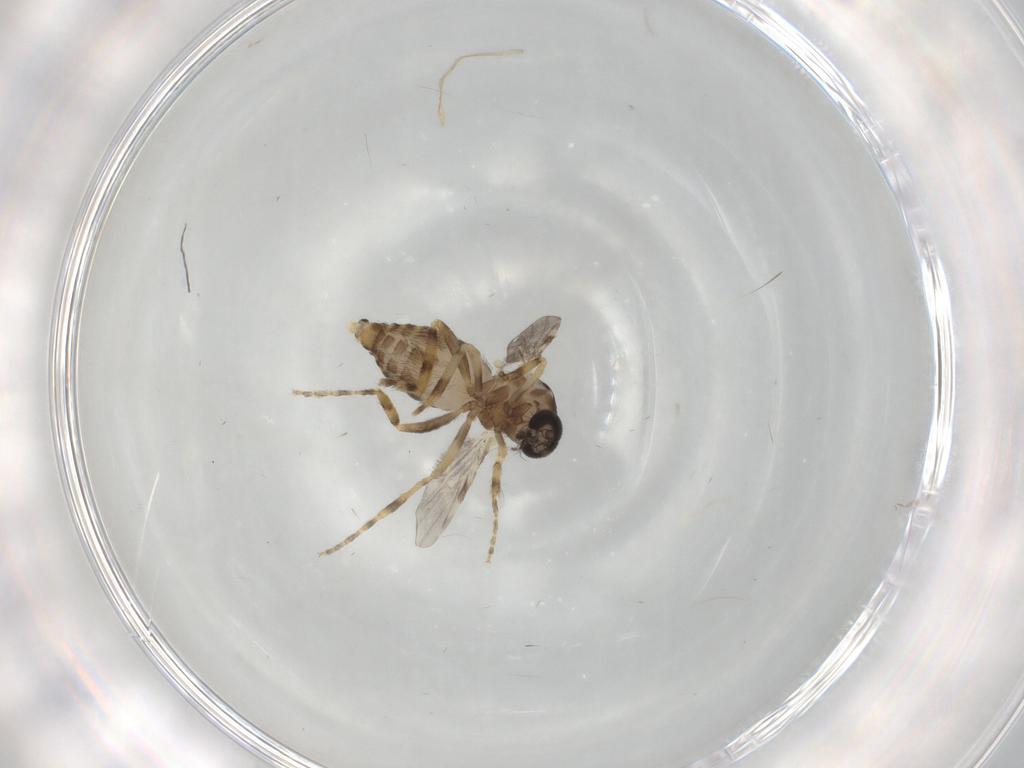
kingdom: Animalia
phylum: Arthropoda
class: Insecta
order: Diptera
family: Ceratopogonidae
